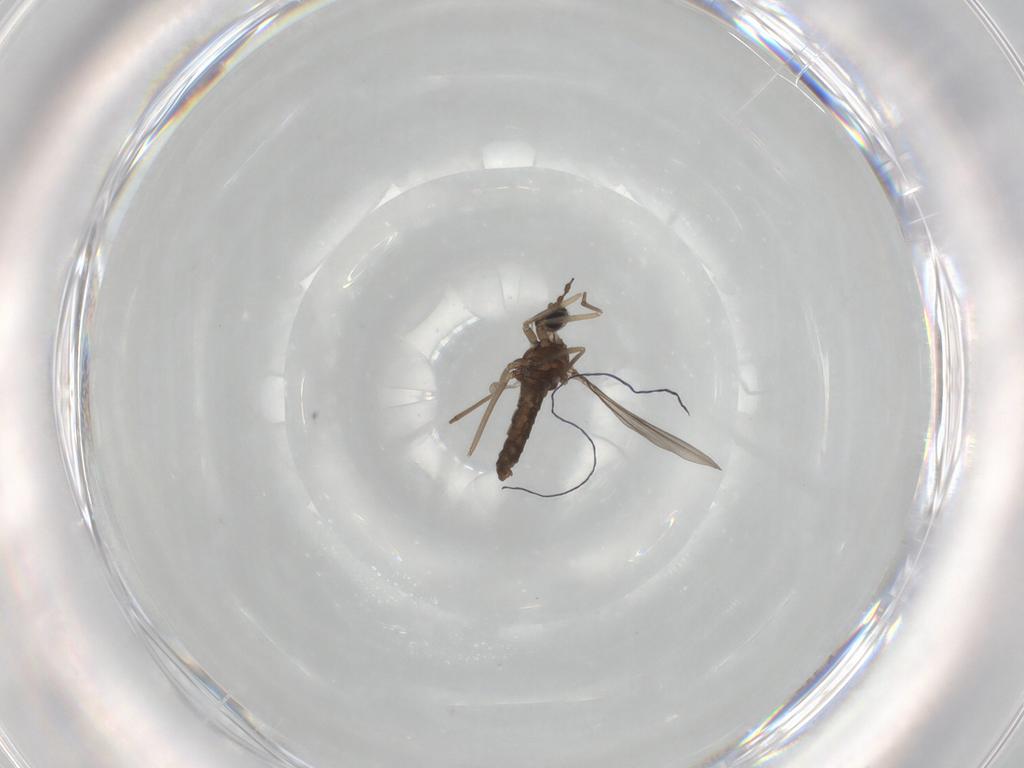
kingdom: Animalia
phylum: Arthropoda
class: Insecta
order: Diptera
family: Cecidomyiidae
